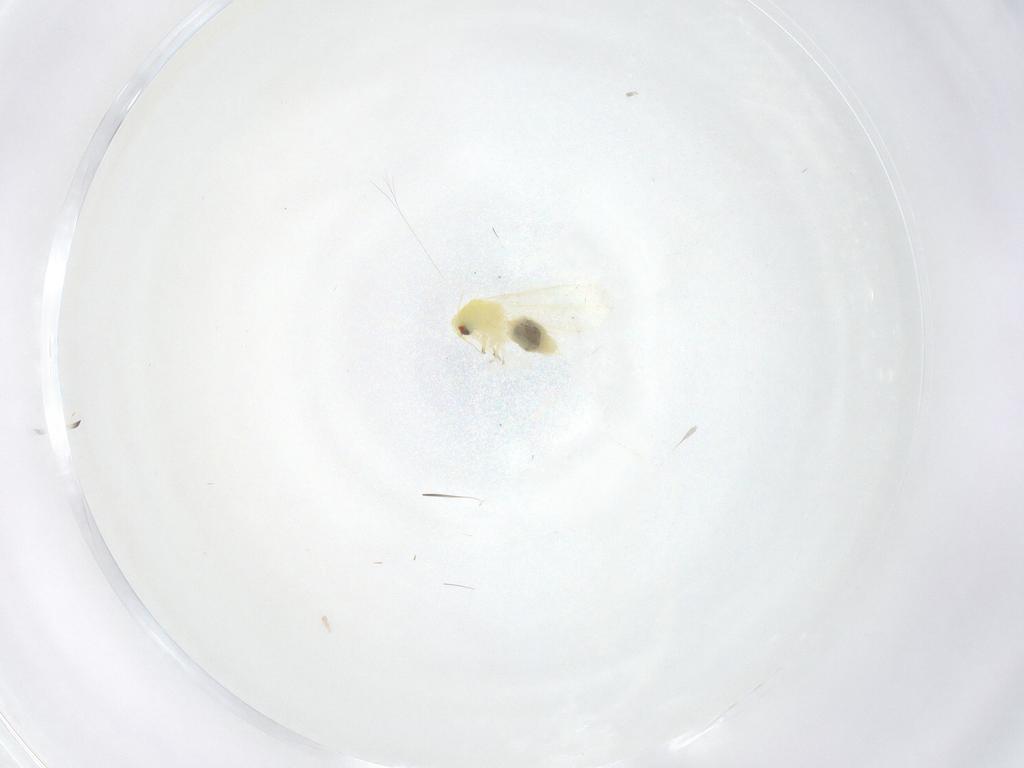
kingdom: Animalia
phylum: Arthropoda
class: Insecta
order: Hemiptera
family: Aleyrodidae
